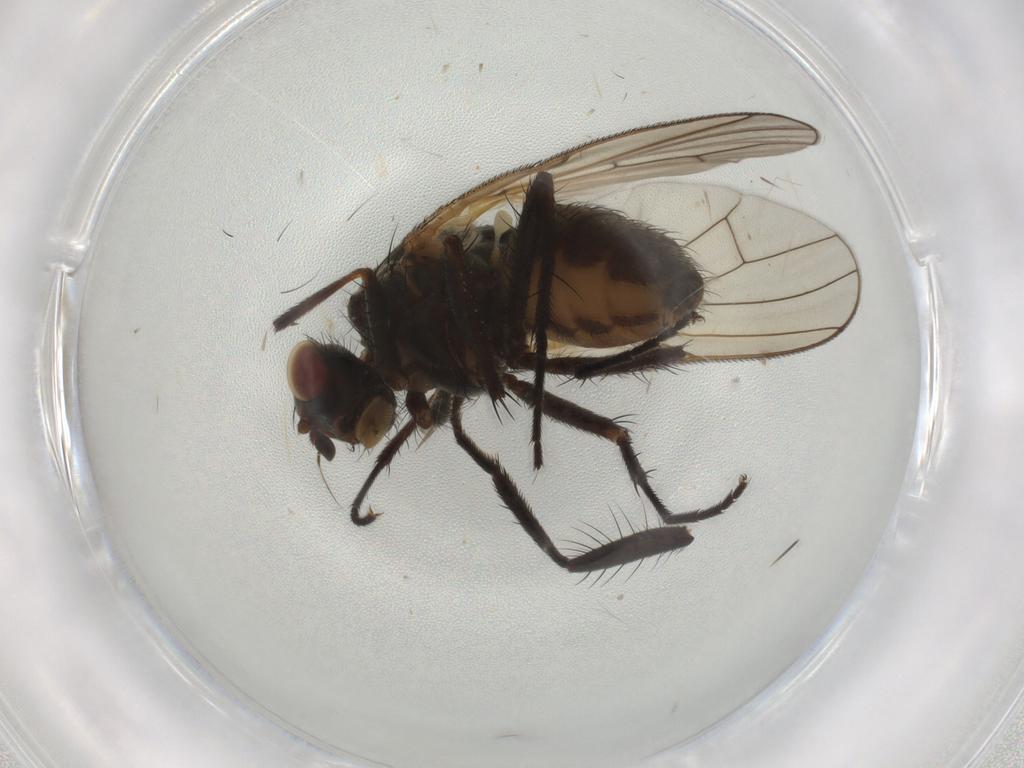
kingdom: Animalia
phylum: Arthropoda
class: Insecta
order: Diptera
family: Anthomyiidae
